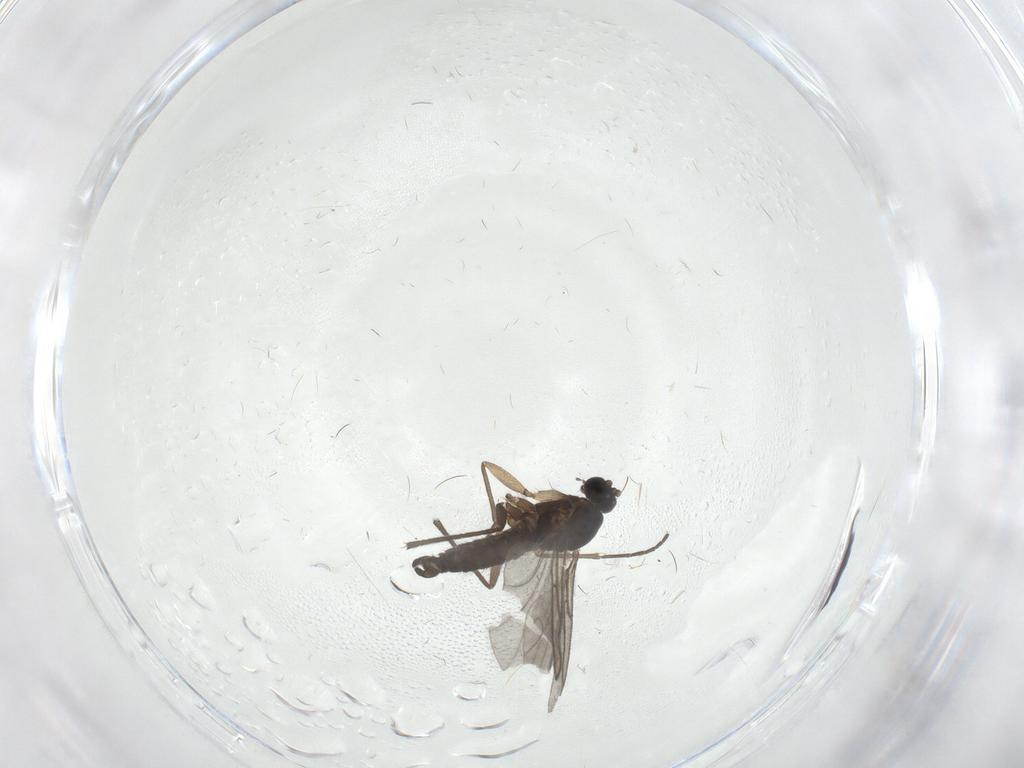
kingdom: Animalia
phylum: Arthropoda
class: Insecta
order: Diptera
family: Sciaridae
